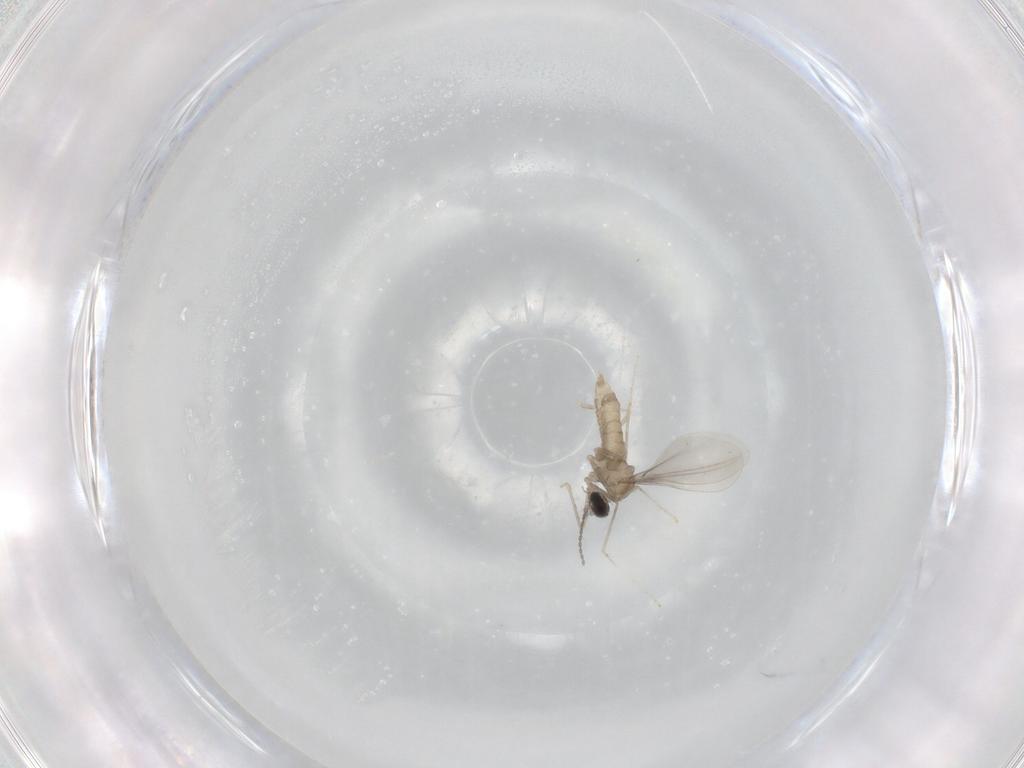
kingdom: Animalia
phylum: Arthropoda
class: Insecta
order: Diptera
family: Cecidomyiidae
